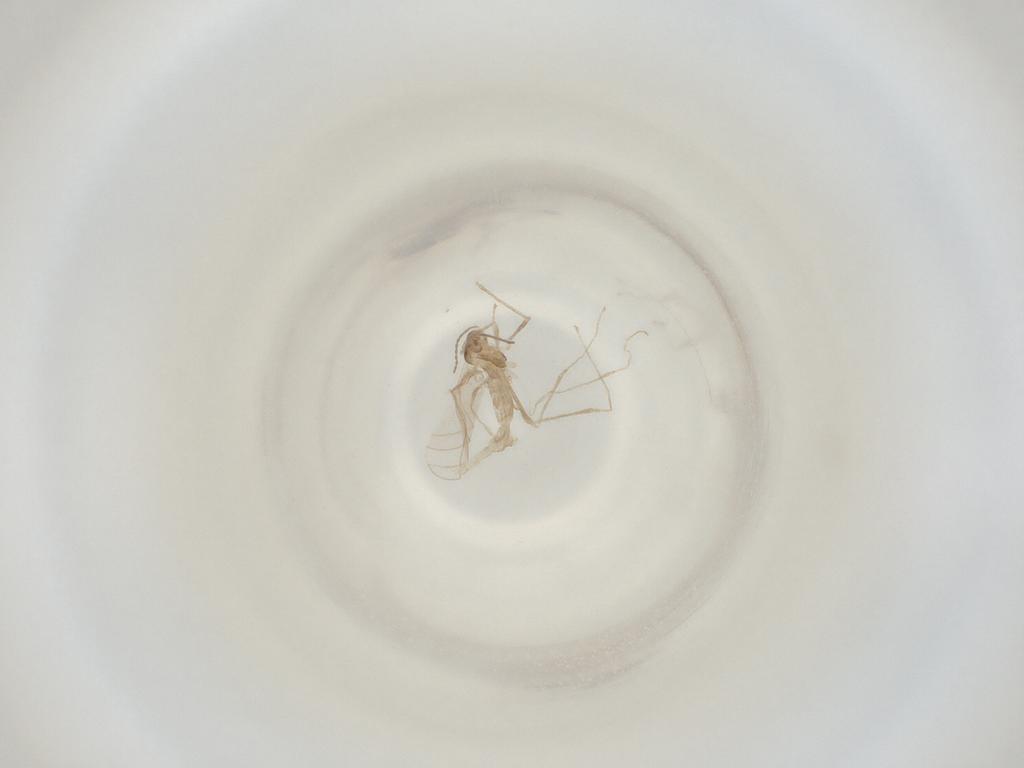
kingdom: Animalia
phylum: Arthropoda
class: Insecta
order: Diptera
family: Cecidomyiidae
